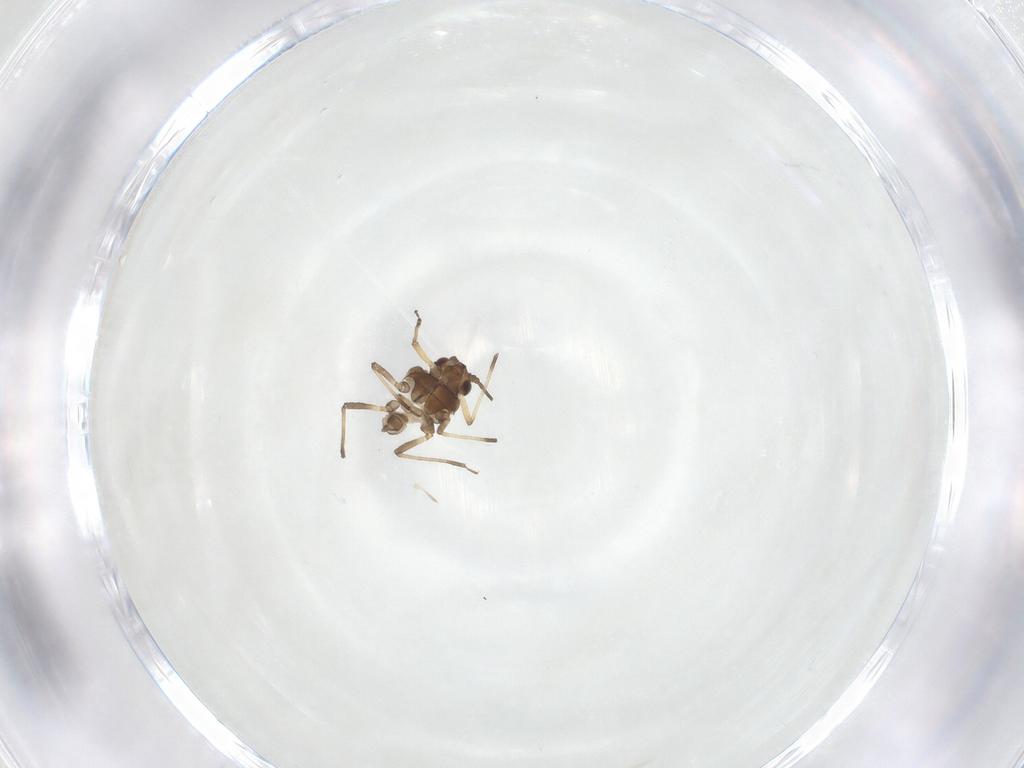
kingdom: Animalia
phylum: Arthropoda
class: Insecta
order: Hemiptera
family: Aphididae
